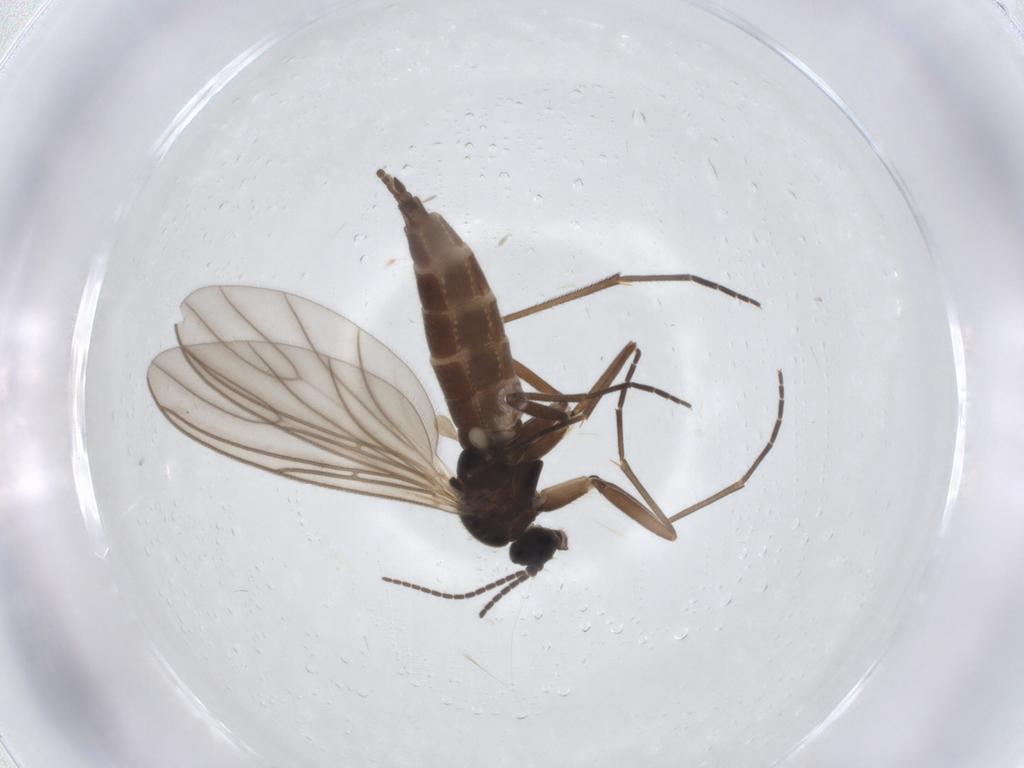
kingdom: Animalia
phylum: Arthropoda
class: Insecta
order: Diptera
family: Sciaridae
